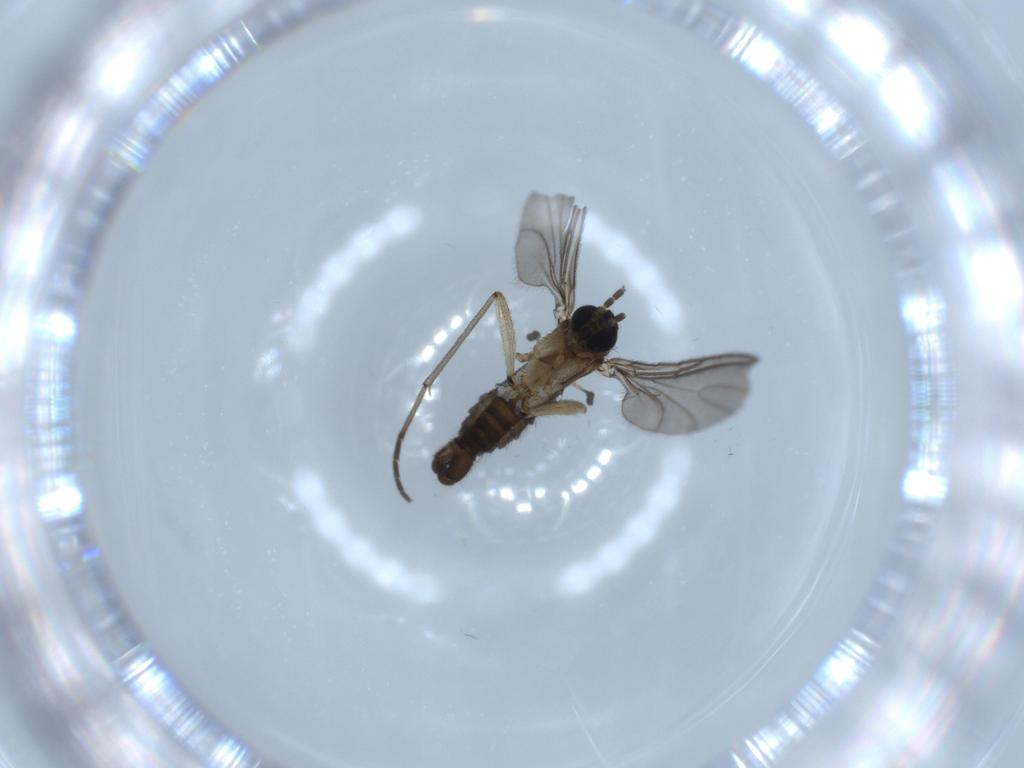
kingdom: Animalia
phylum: Arthropoda
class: Insecta
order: Diptera
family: Sciaridae
